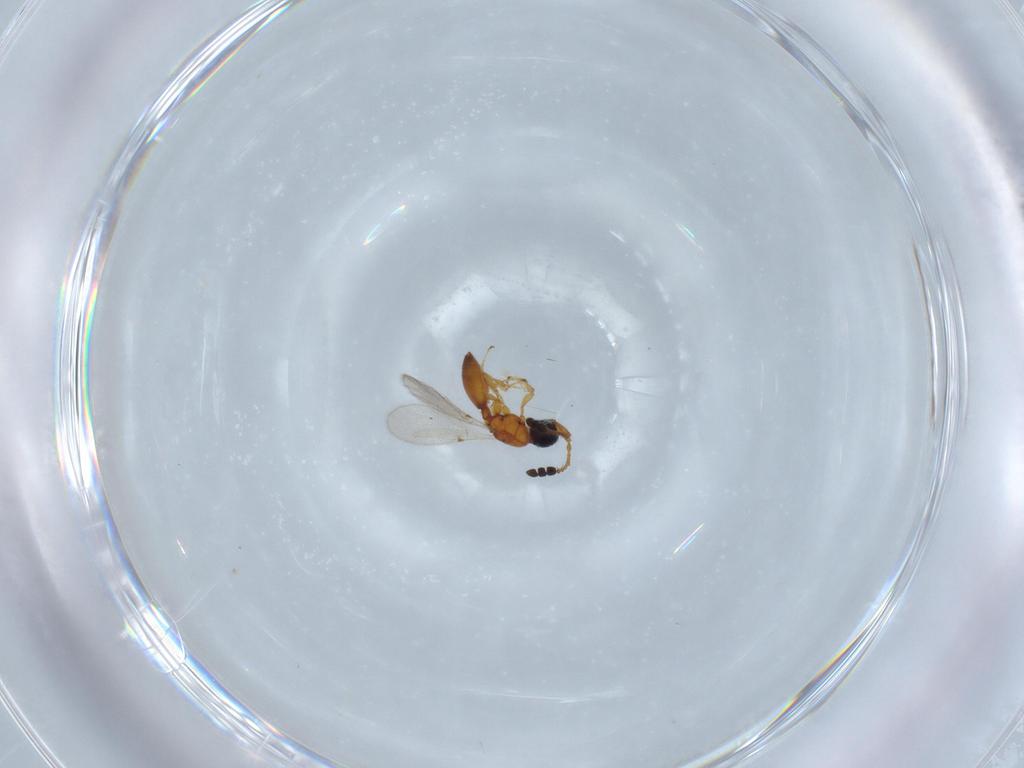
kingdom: Animalia
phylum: Arthropoda
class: Insecta
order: Hymenoptera
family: Diapriidae
